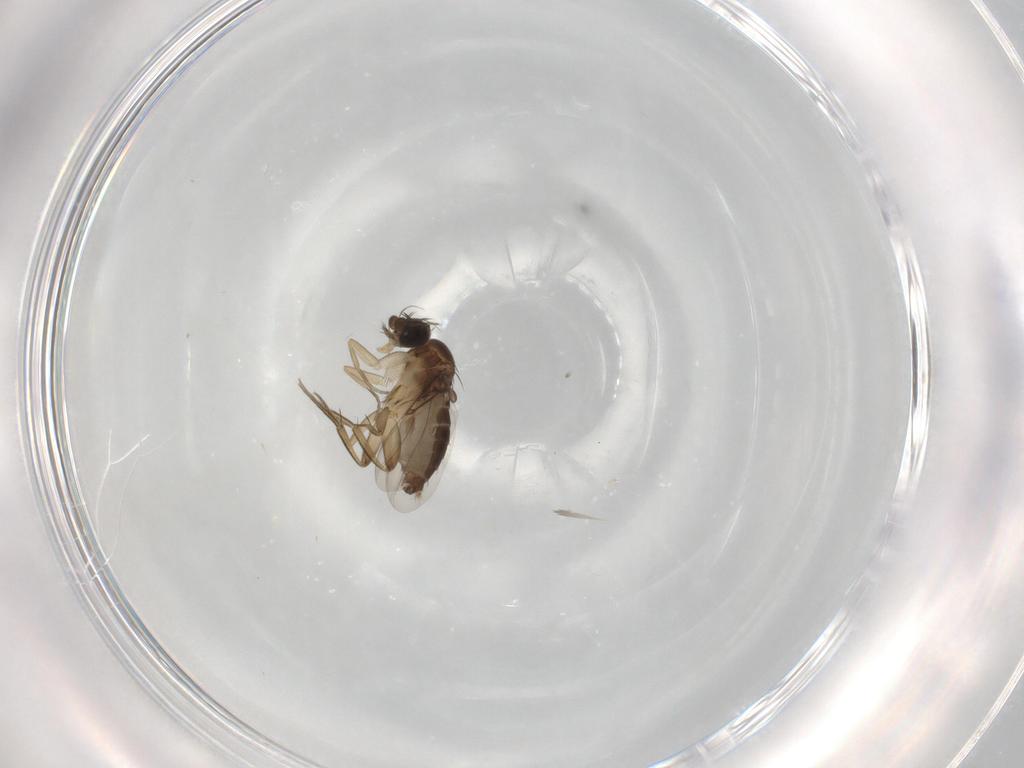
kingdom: Animalia
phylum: Arthropoda
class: Insecta
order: Diptera
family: Phoridae
